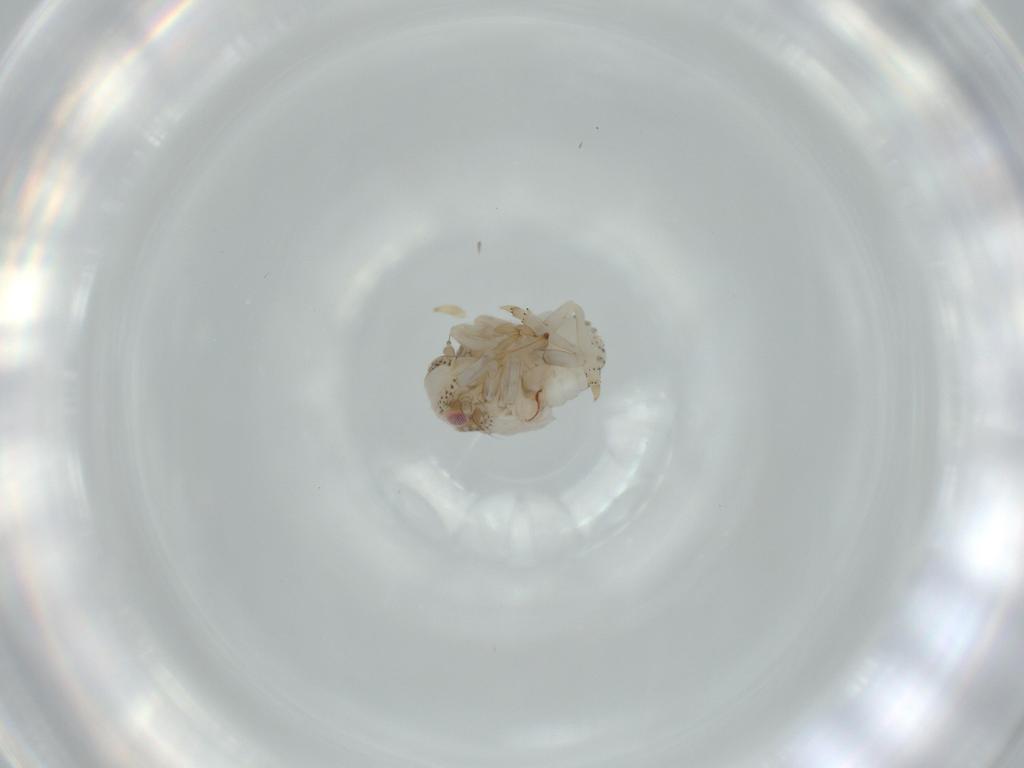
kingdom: Animalia
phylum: Arthropoda
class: Insecta
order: Hemiptera
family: Acanaloniidae
